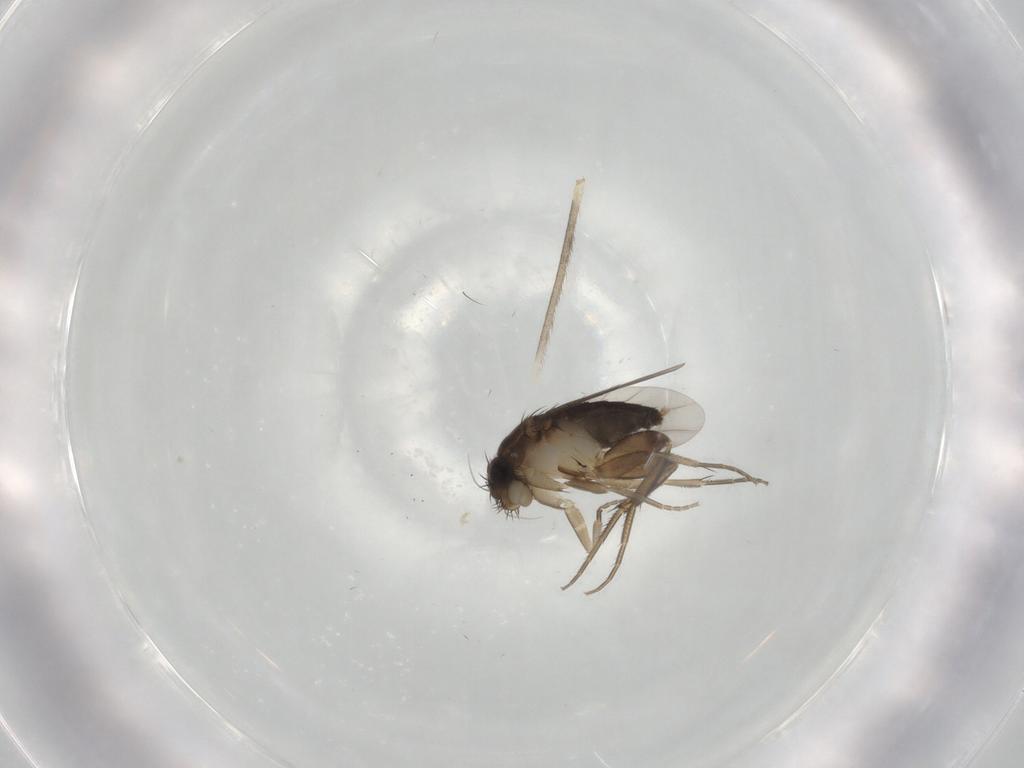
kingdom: Animalia
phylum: Arthropoda
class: Insecta
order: Diptera
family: Phoridae
